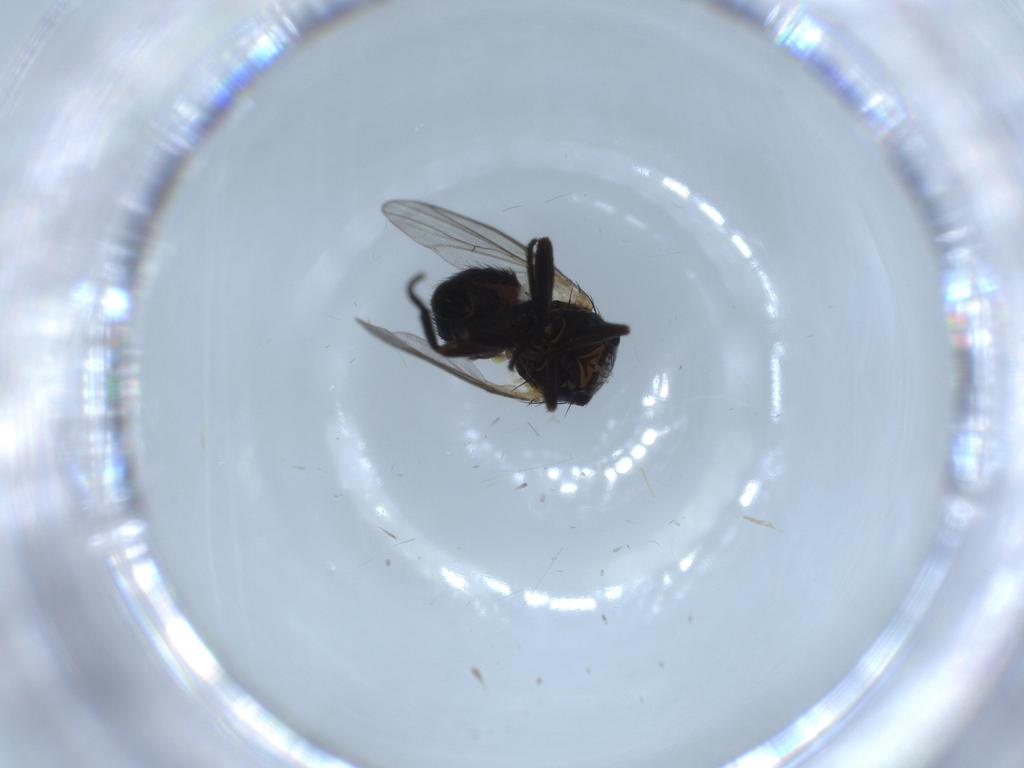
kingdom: Animalia
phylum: Arthropoda
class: Insecta
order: Diptera
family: Agromyzidae
